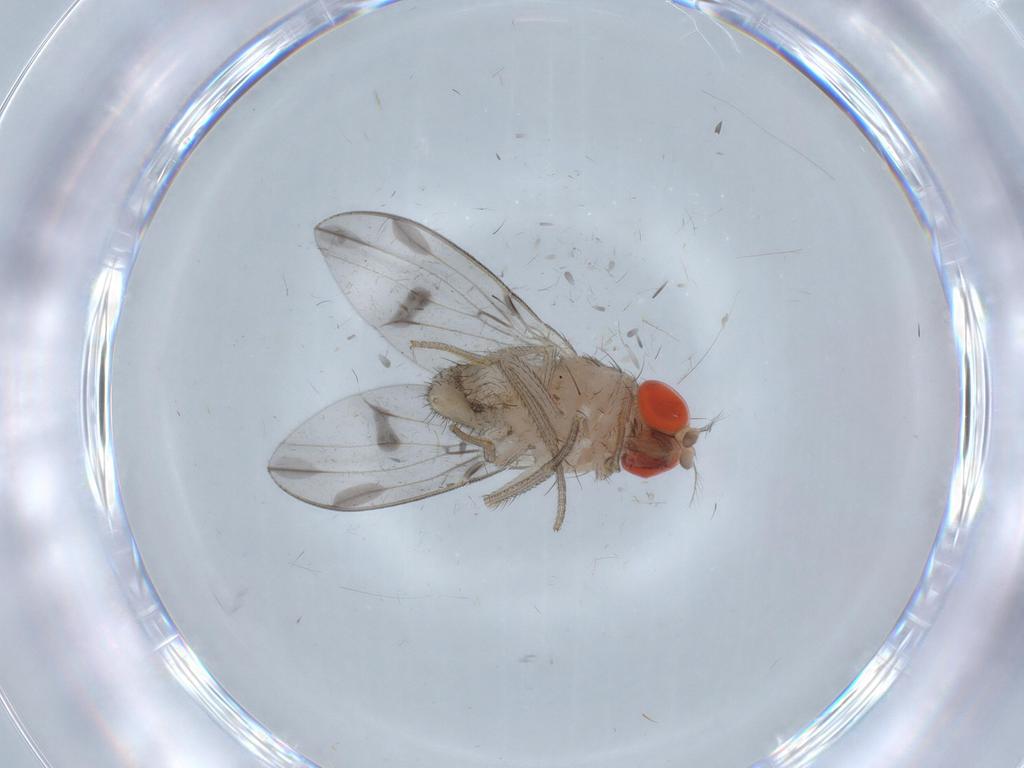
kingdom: Animalia
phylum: Arthropoda
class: Insecta
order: Diptera
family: Cecidomyiidae
